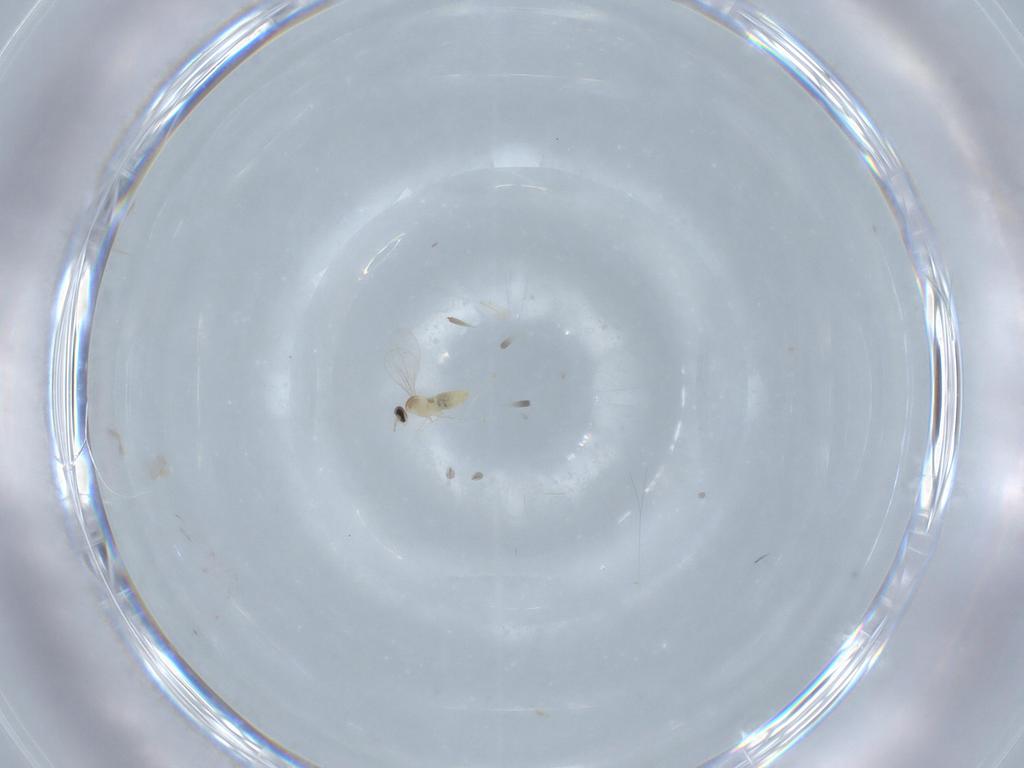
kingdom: Animalia
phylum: Arthropoda
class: Insecta
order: Diptera
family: Cecidomyiidae
